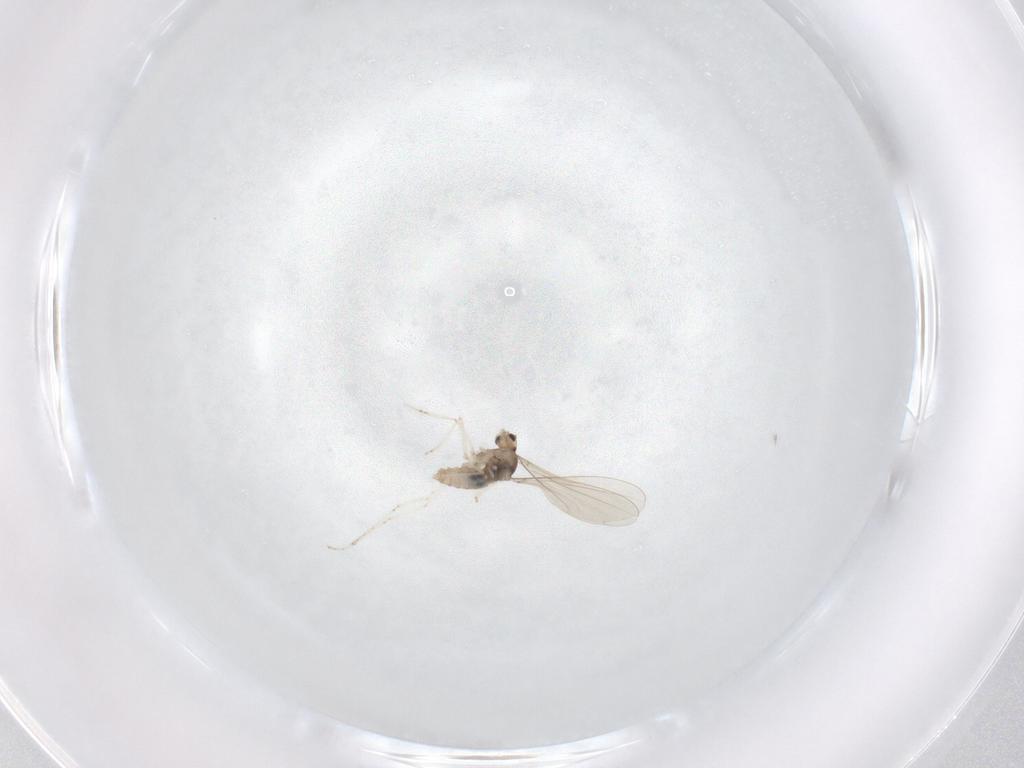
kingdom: Animalia
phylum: Arthropoda
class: Insecta
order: Diptera
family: Cecidomyiidae
